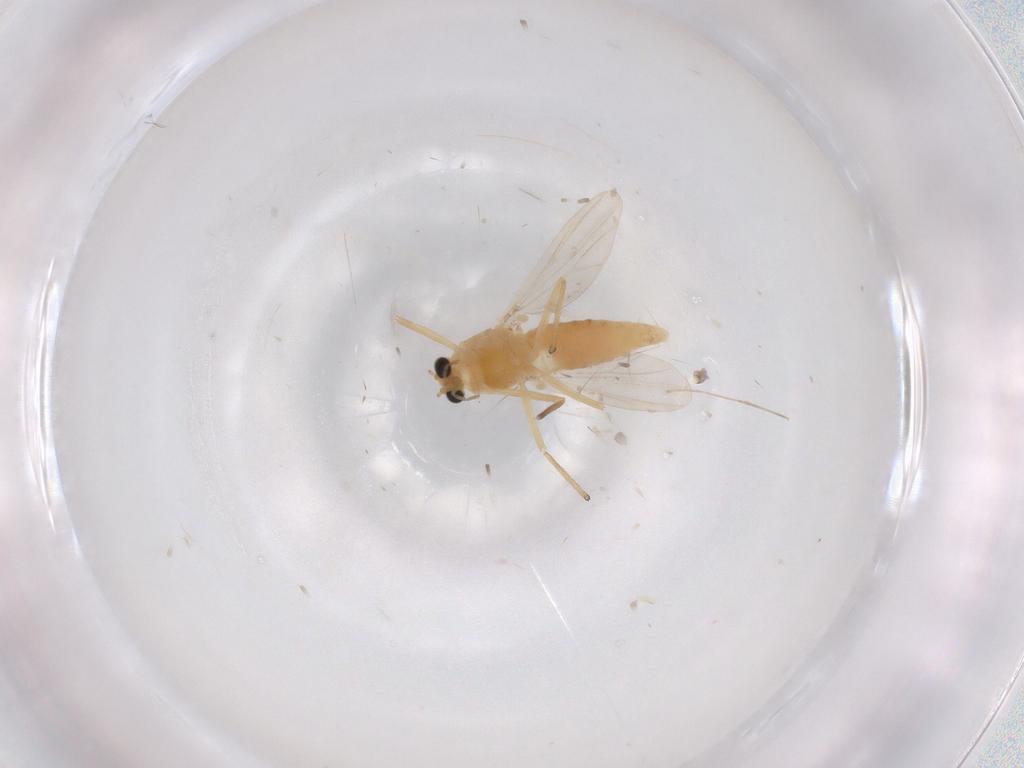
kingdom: Animalia
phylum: Arthropoda
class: Insecta
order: Diptera
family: Chironomidae
